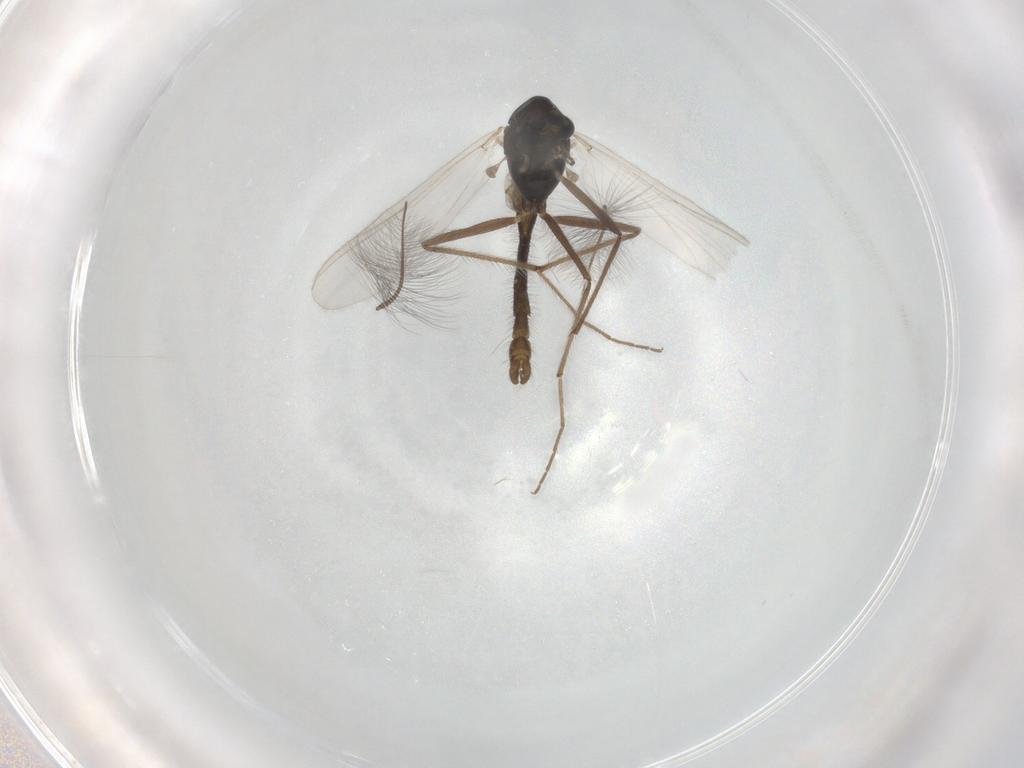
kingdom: Animalia
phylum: Arthropoda
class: Insecta
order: Diptera
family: Chironomidae
